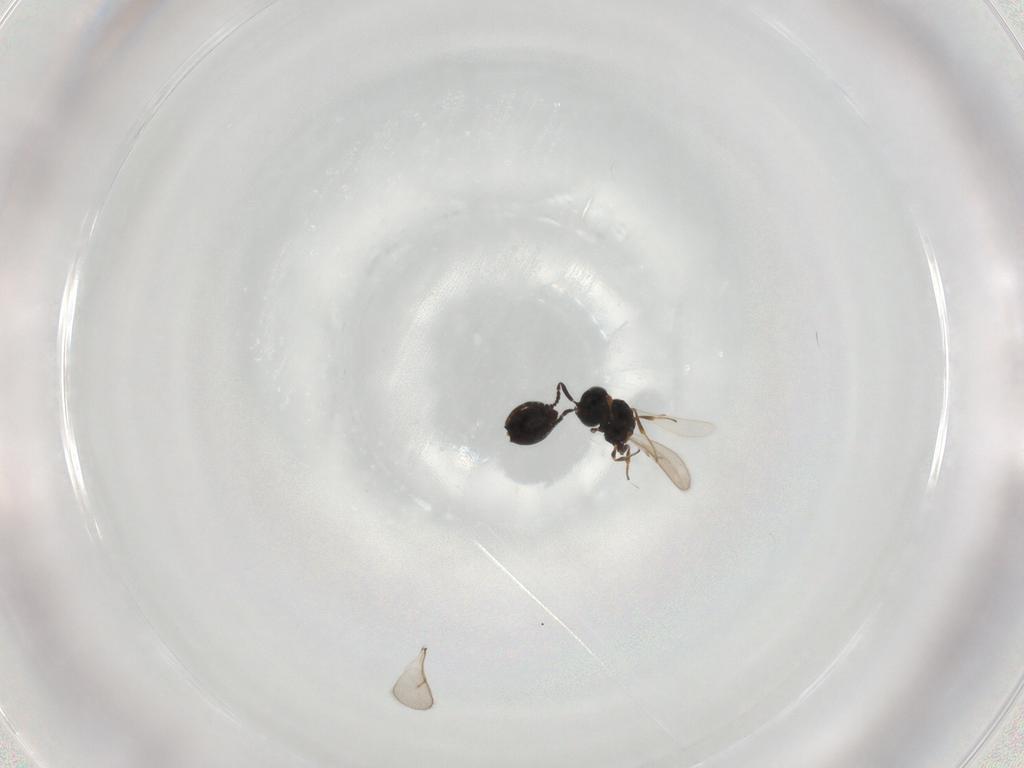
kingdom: Animalia
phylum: Arthropoda
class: Insecta
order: Hymenoptera
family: Scelionidae
